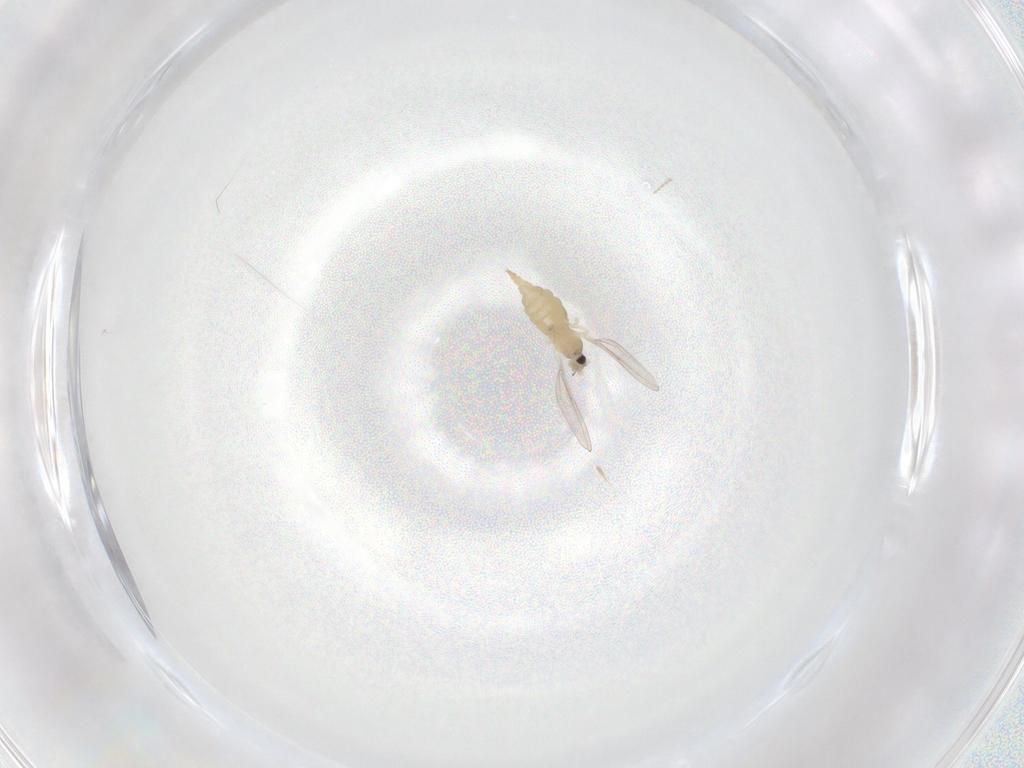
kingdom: Animalia
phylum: Arthropoda
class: Insecta
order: Diptera
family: Cecidomyiidae
